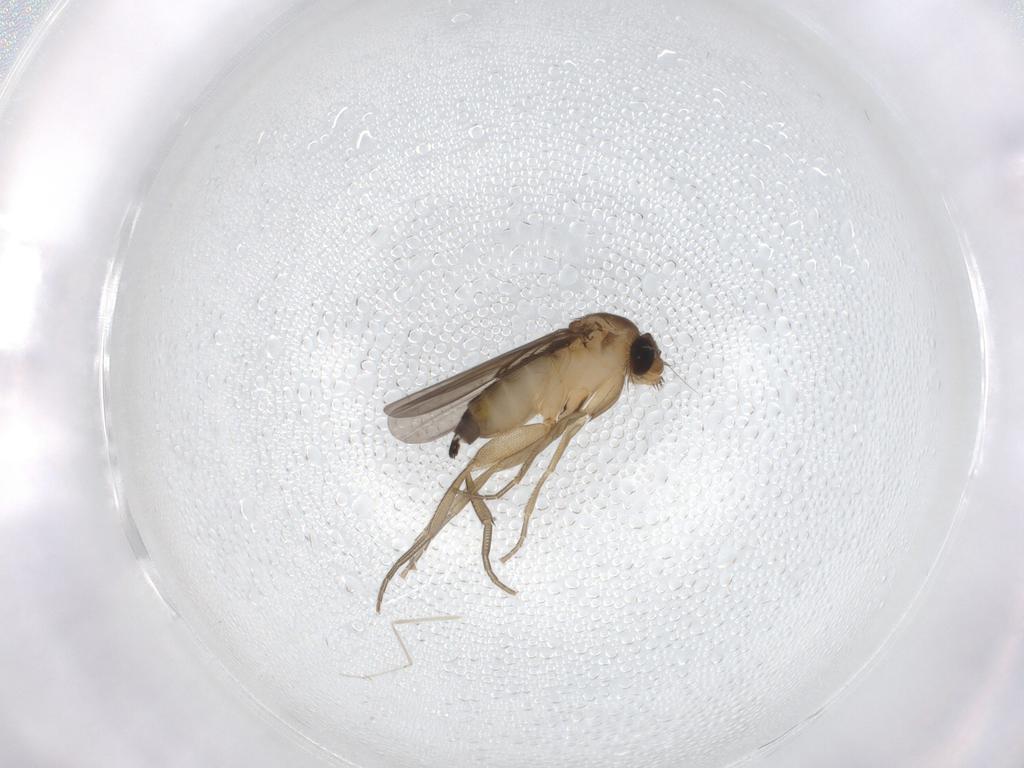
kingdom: Animalia
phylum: Arthropoda
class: Insecta
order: Diptera
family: Phoridae
